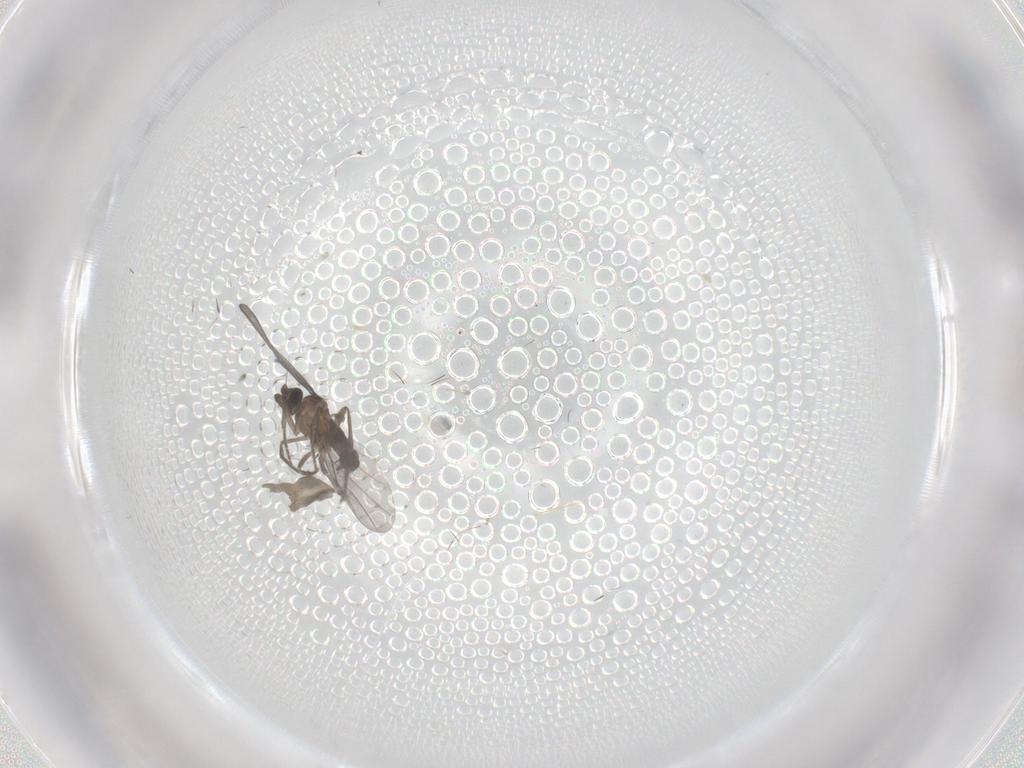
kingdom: Animalia
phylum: Arthropoda
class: Insecta
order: Diptera
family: Phoridae
